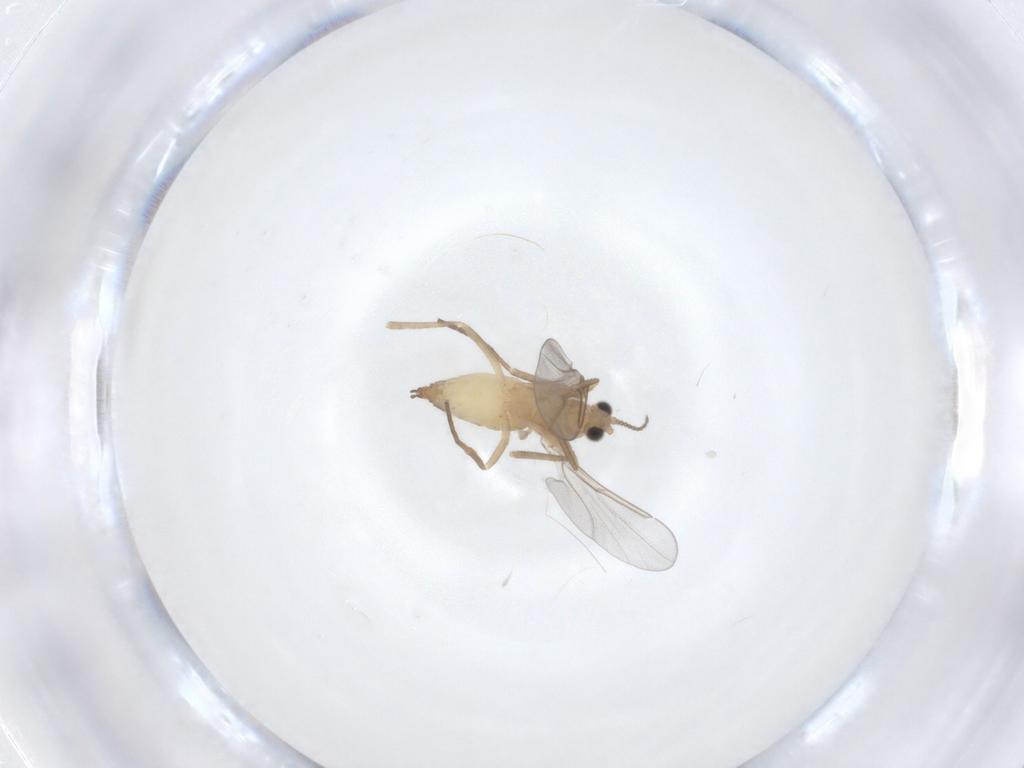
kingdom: Animalia
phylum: Arthropoda
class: Insecta
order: Diptera
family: Cecidomyiidae
